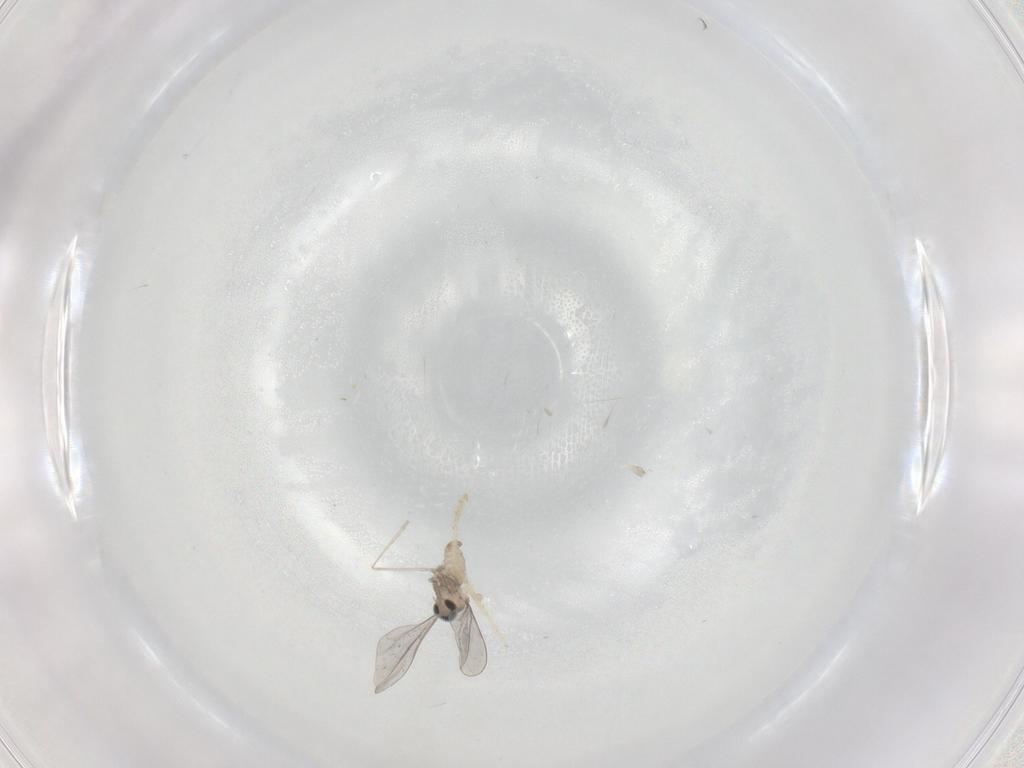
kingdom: Animalia
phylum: Arthropoda
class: Insecta
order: Diptera
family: Chironomidae
